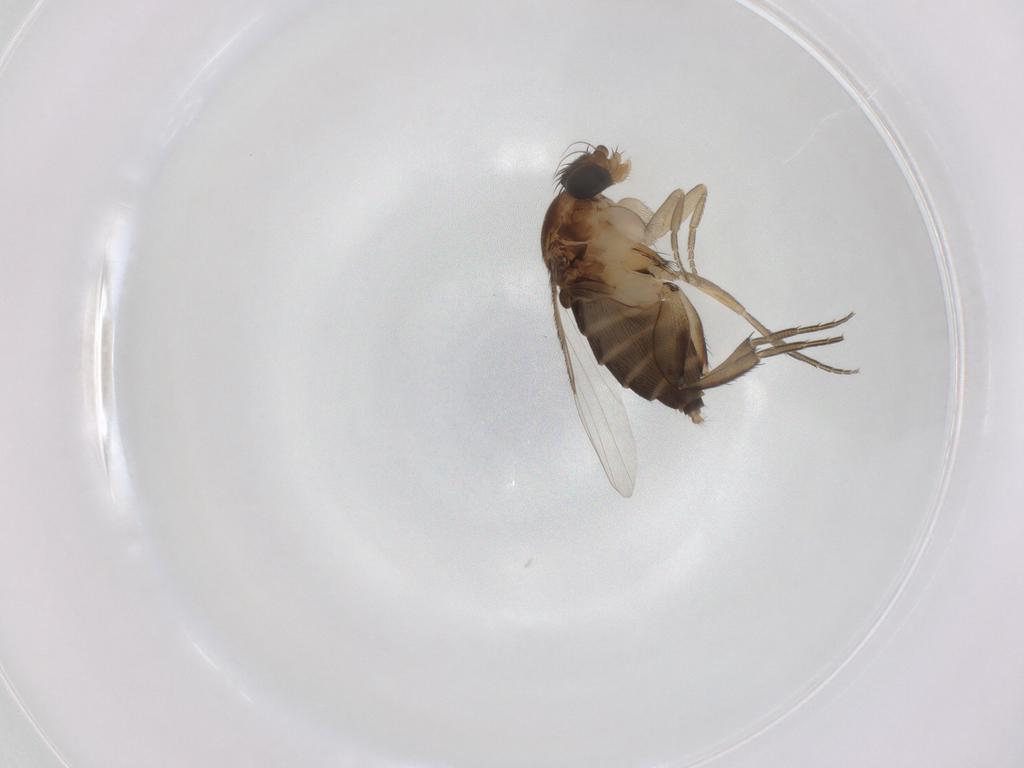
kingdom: Animalia
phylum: Arthropoda
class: Insecta
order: Diptera
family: Phoridae
